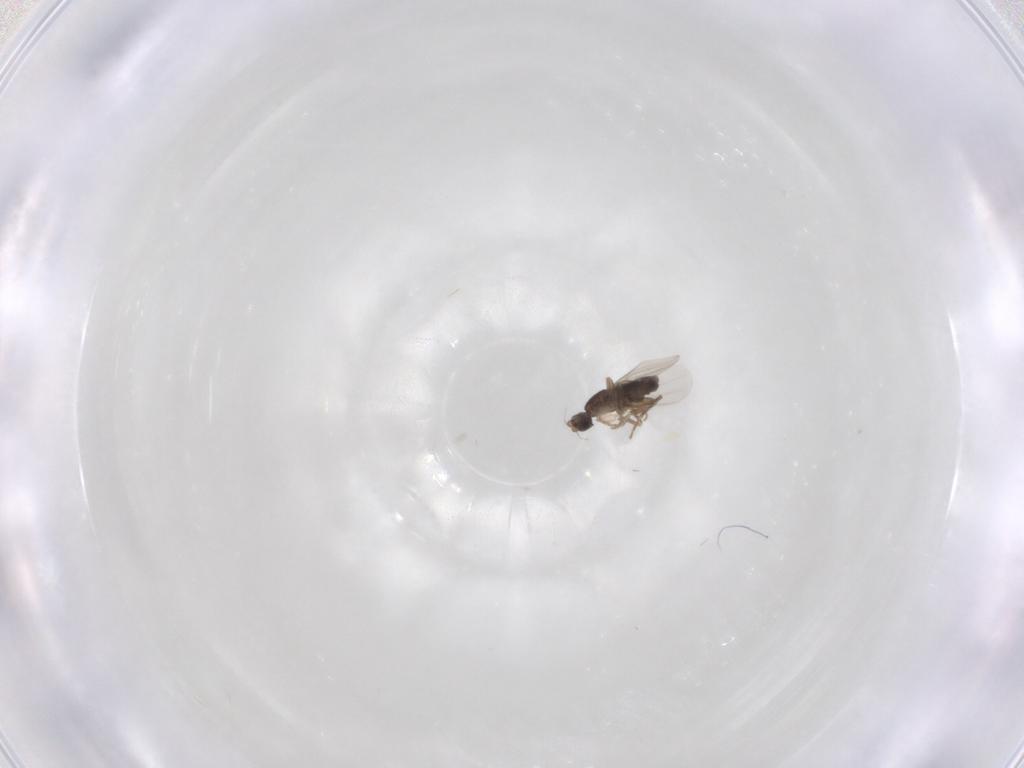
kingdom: Animalia
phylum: Arthropoda
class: Insecta
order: Diptera
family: Phoridae
